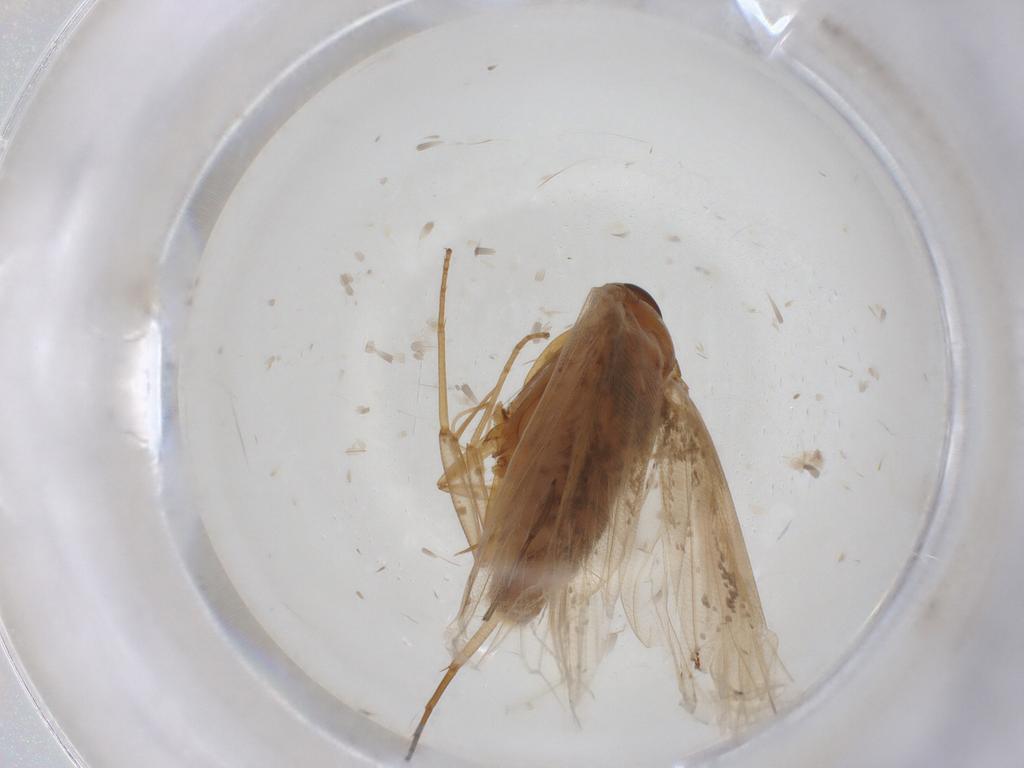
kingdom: Animalia
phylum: Arthropoda
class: Insecta
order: Lepidoptera
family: Lecithoceridae
